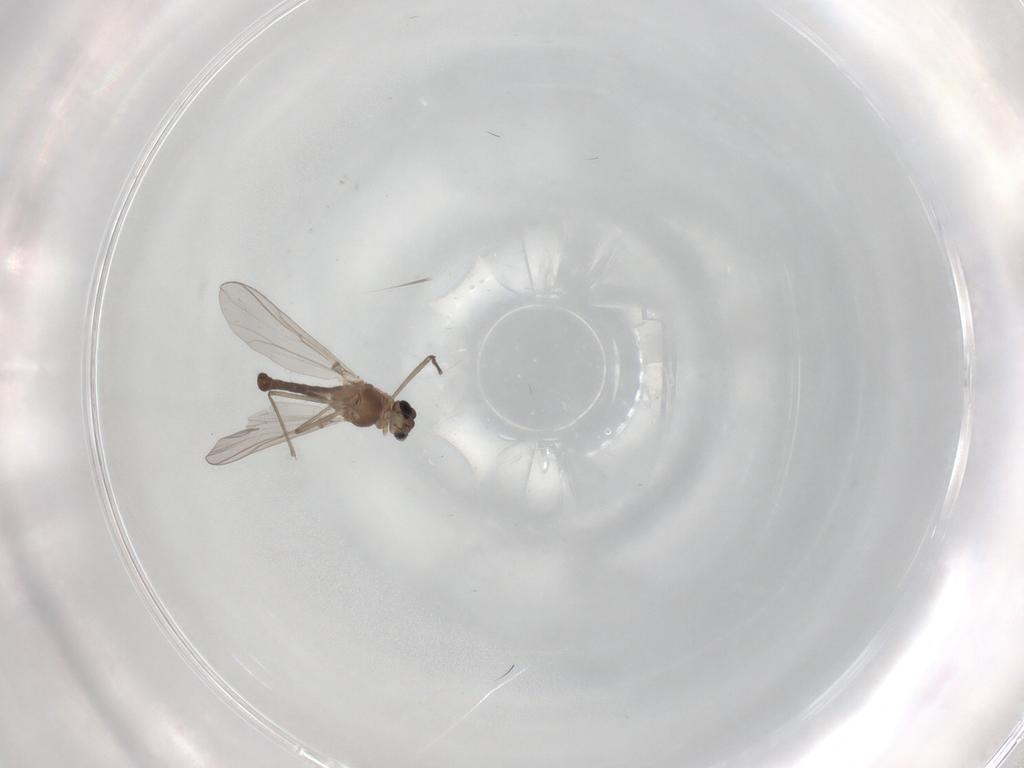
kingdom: Animalia
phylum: Arthropoda
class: Insecta
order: Diptera
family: Chironomidae
